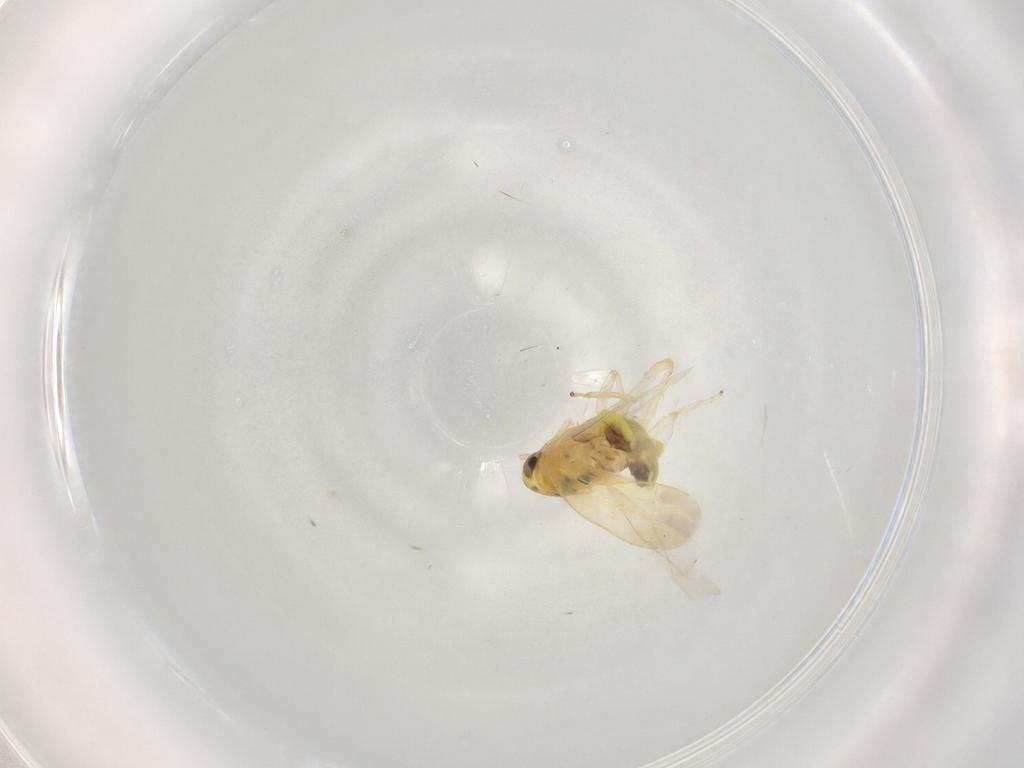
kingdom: Animalia
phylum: Arthropoda
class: Insecta
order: Hemiptera
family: Cicadellidae
